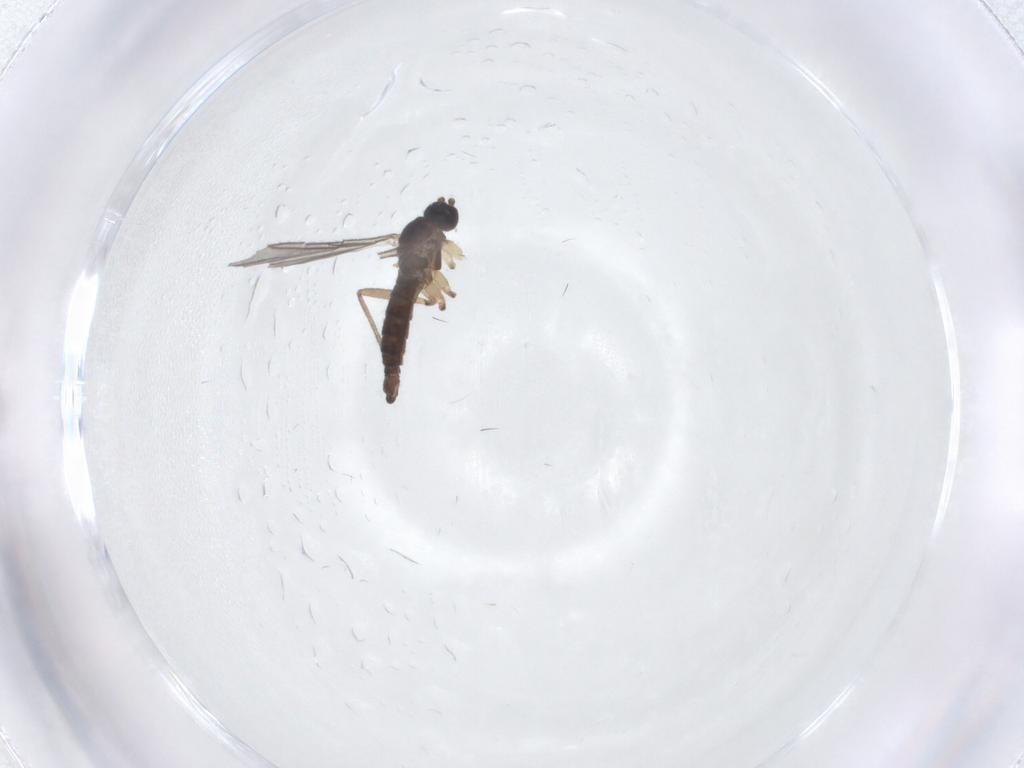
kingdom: Animalia
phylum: Arthropoda
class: Insecta
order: Diptera
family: Sciaridae
